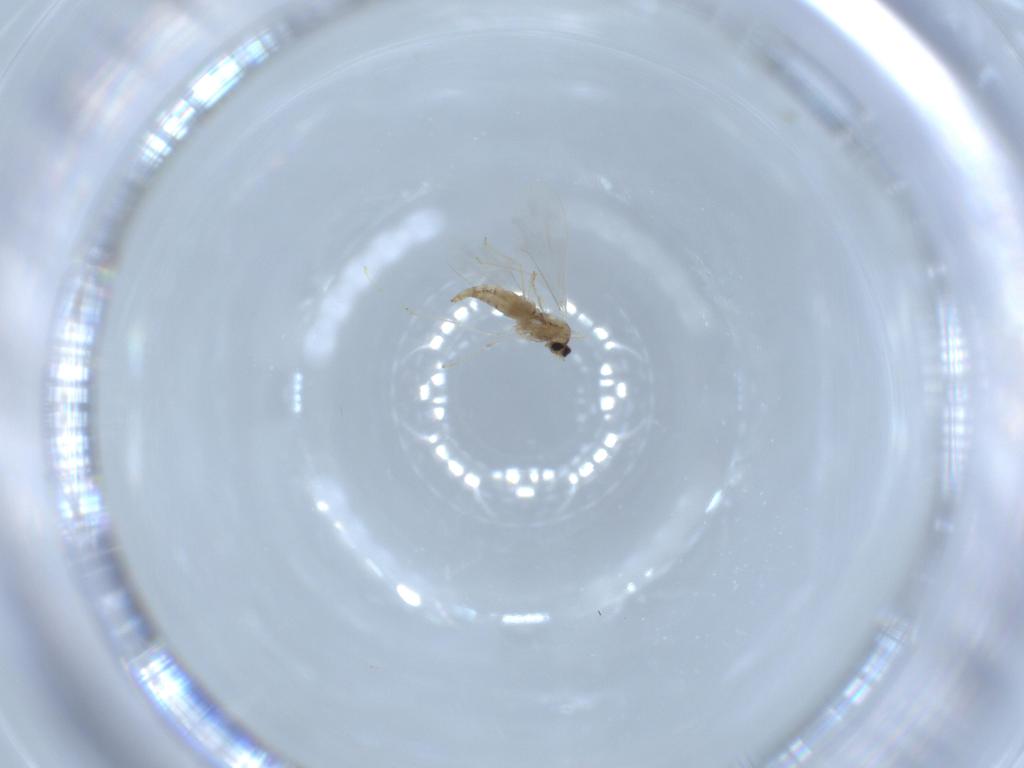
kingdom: Animalia
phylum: Arthropoda
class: Insecta
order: Diptera
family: Cecidomyiidae
